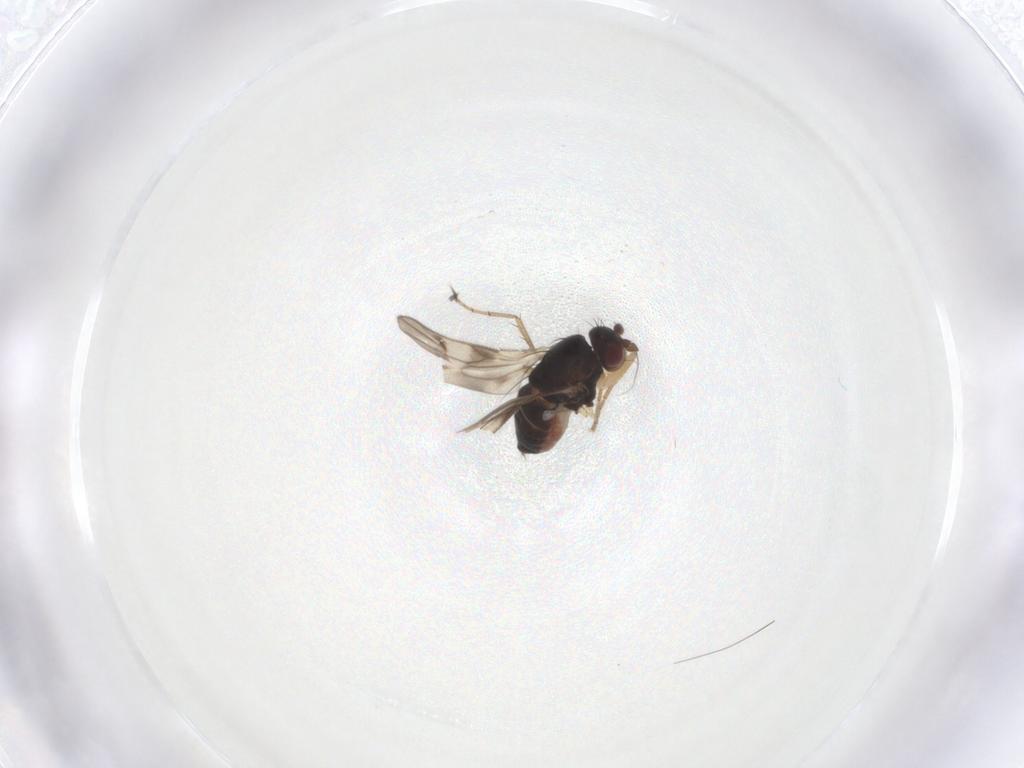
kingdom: Animalia
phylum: Arthropoda
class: Insecta
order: Diptera
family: Sphaeroceridae
